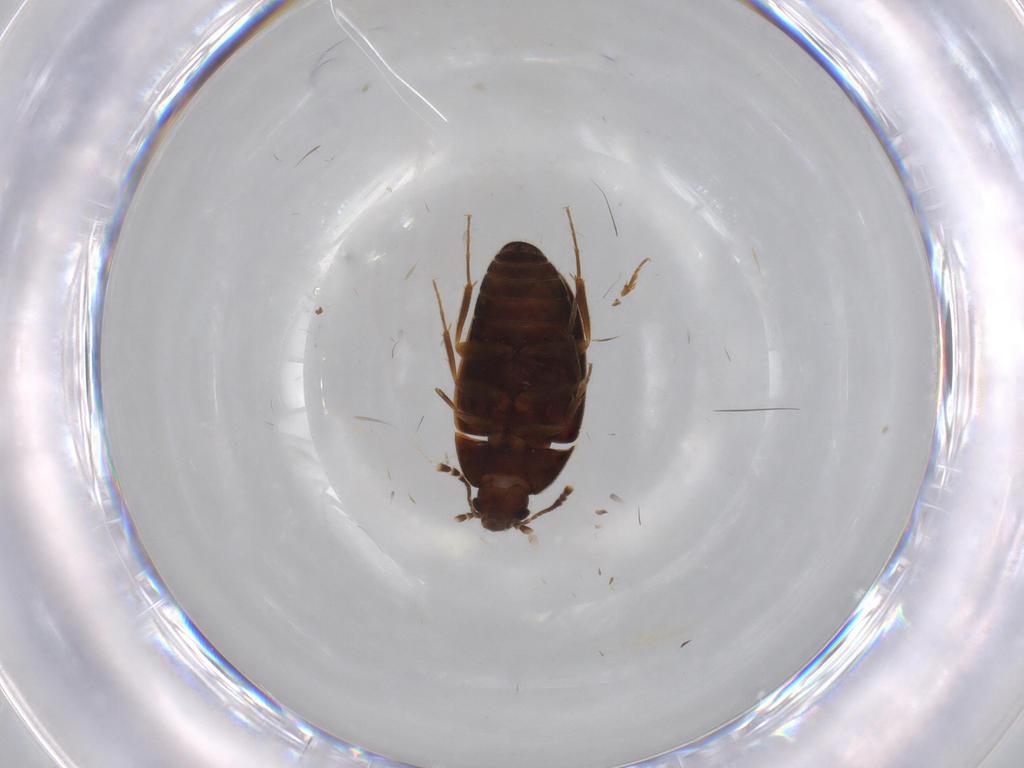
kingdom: Animalia
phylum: Arthropoda
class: Insecta
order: Coleoptera
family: Mycetophagidae
